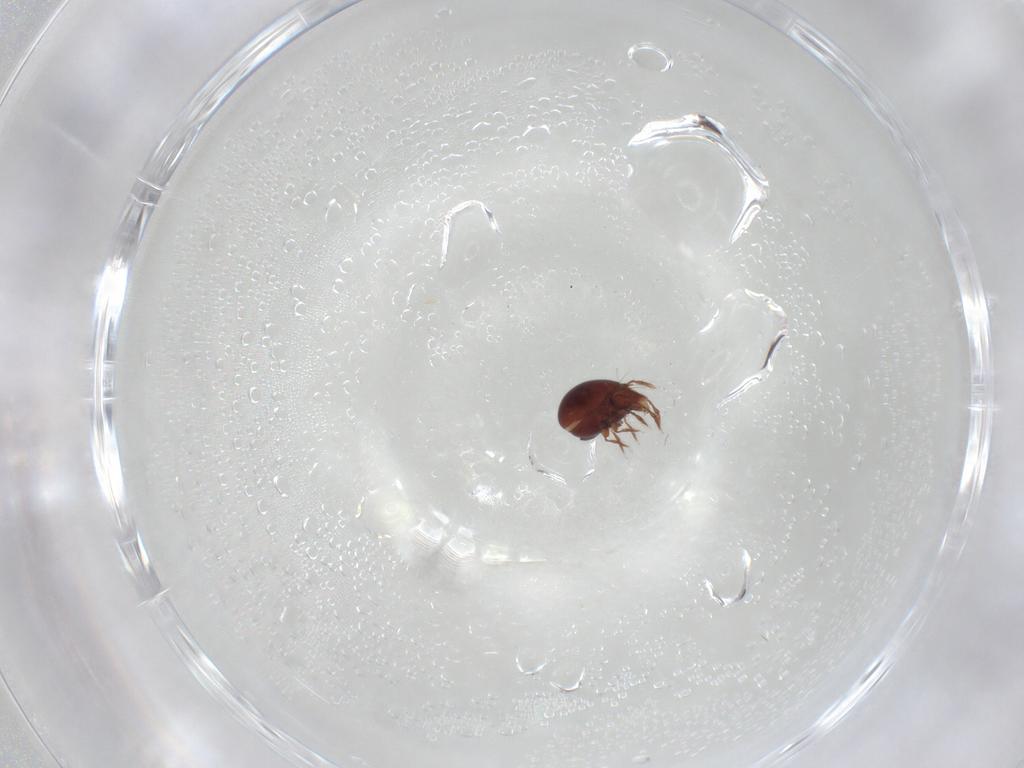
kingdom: Animalia
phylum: Arthropoda
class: Arachnida
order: Sarcoptiformes
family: Ceratozetidae
